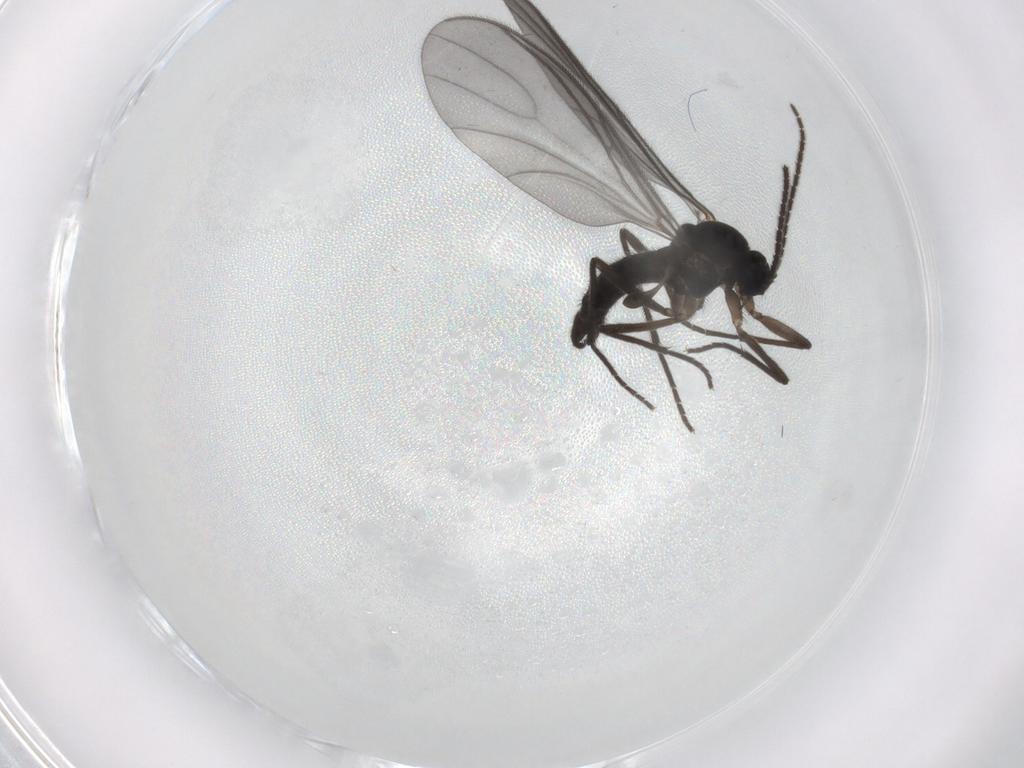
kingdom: Animalia
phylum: Arthropoda
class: Insecta
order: Diptera
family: Sciaridae
